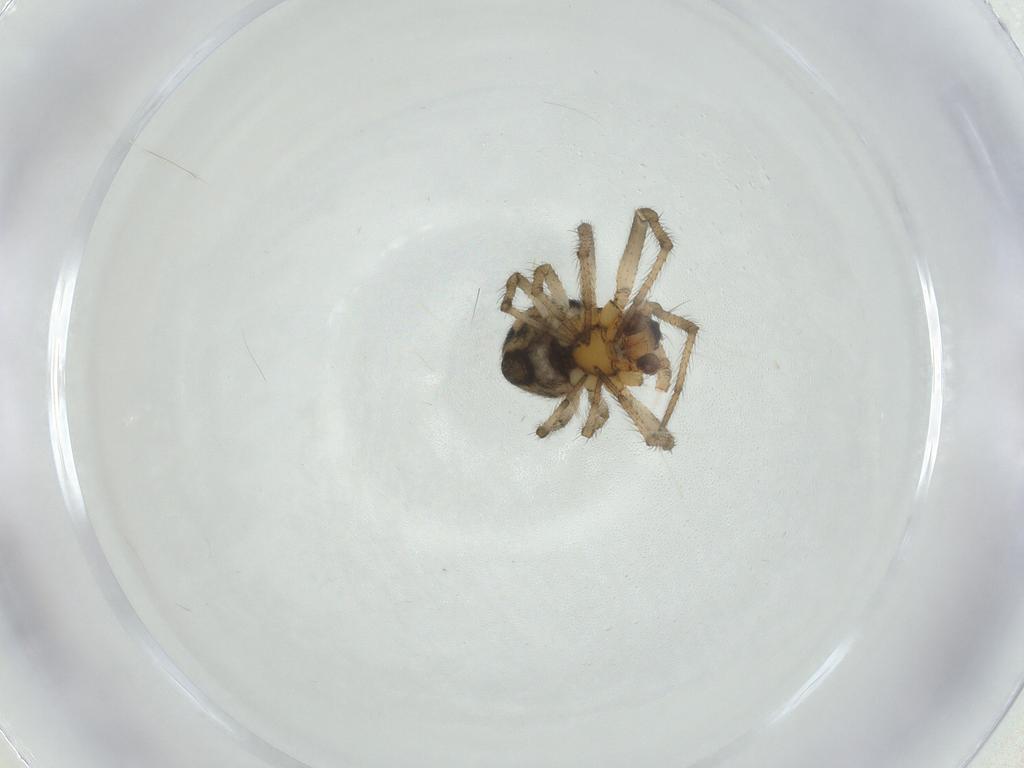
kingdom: Animalia
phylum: Arthropoda
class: Arachnida
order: Araneae
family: Theridiidae
